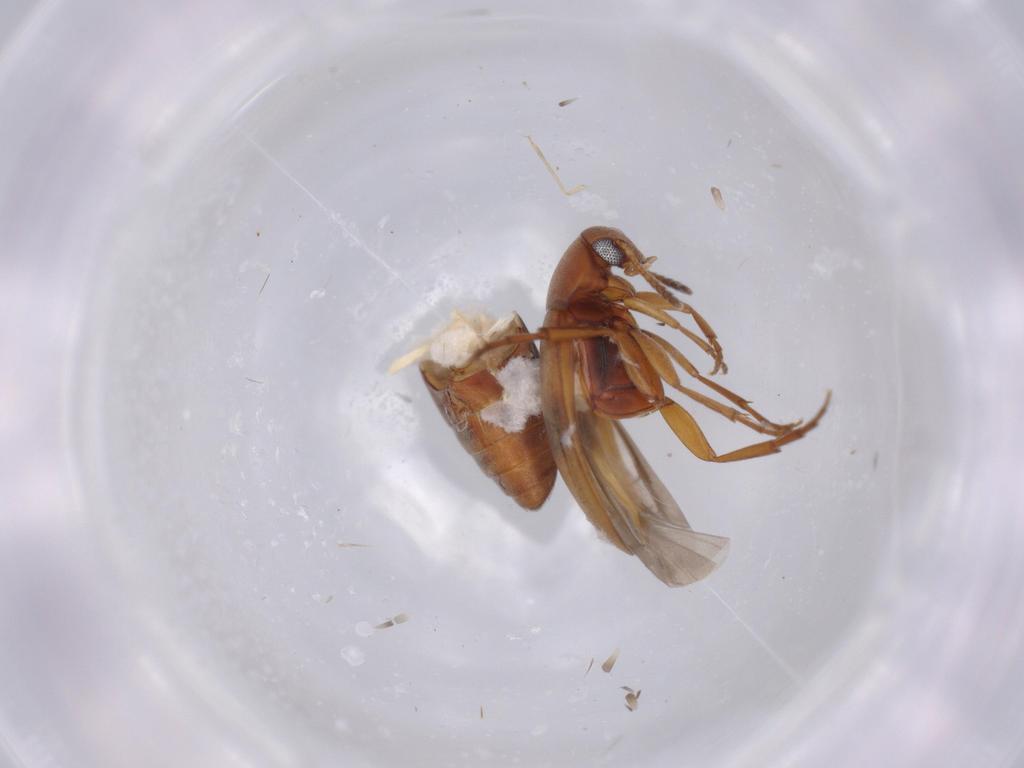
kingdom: Animalia
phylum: Arthropoda
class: Insecta
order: Coleoptera
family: Scraptiidae
